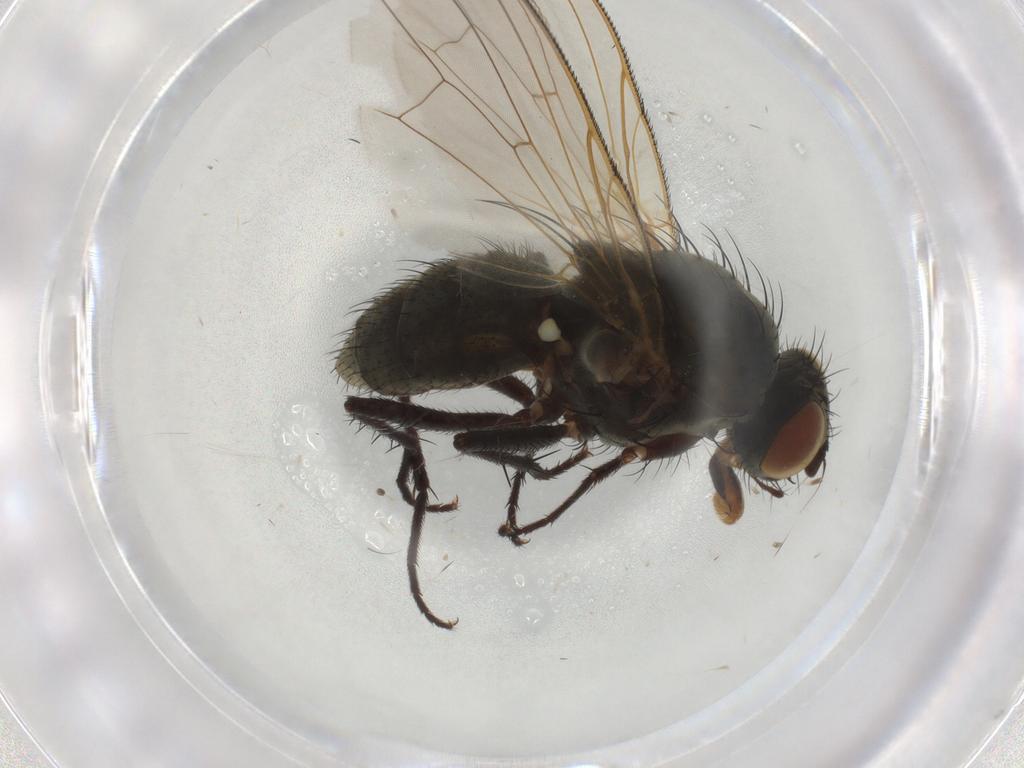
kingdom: Animalia
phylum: Arthropoda
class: Insecta
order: Diptera
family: Anthomyiidae
